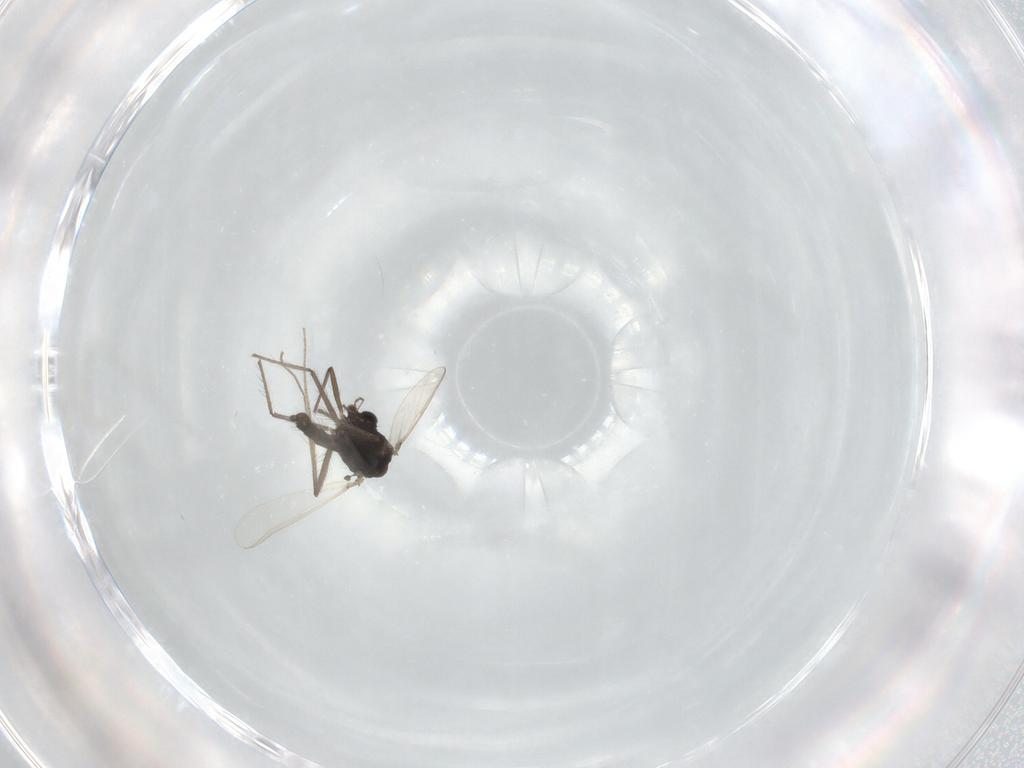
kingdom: Animalia
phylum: Arthropoda
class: Insecta
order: Diptera
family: Chironomidae
